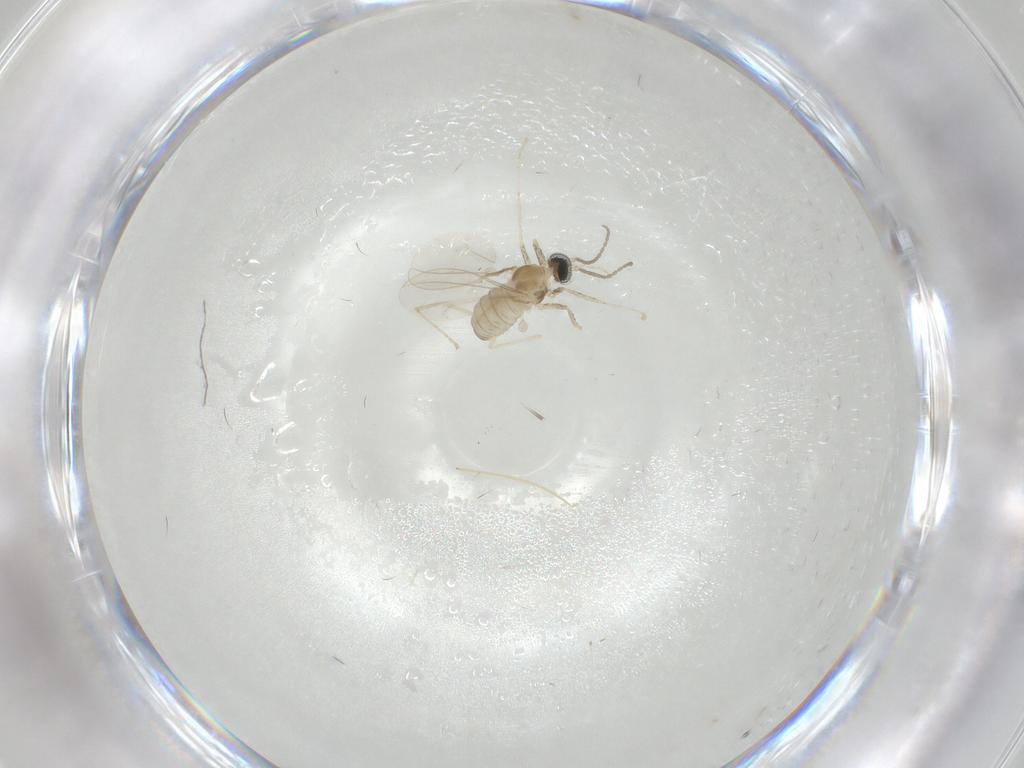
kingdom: Animalia
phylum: Arthropoda
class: Insecta
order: Diptera
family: Cecidomyiidae
